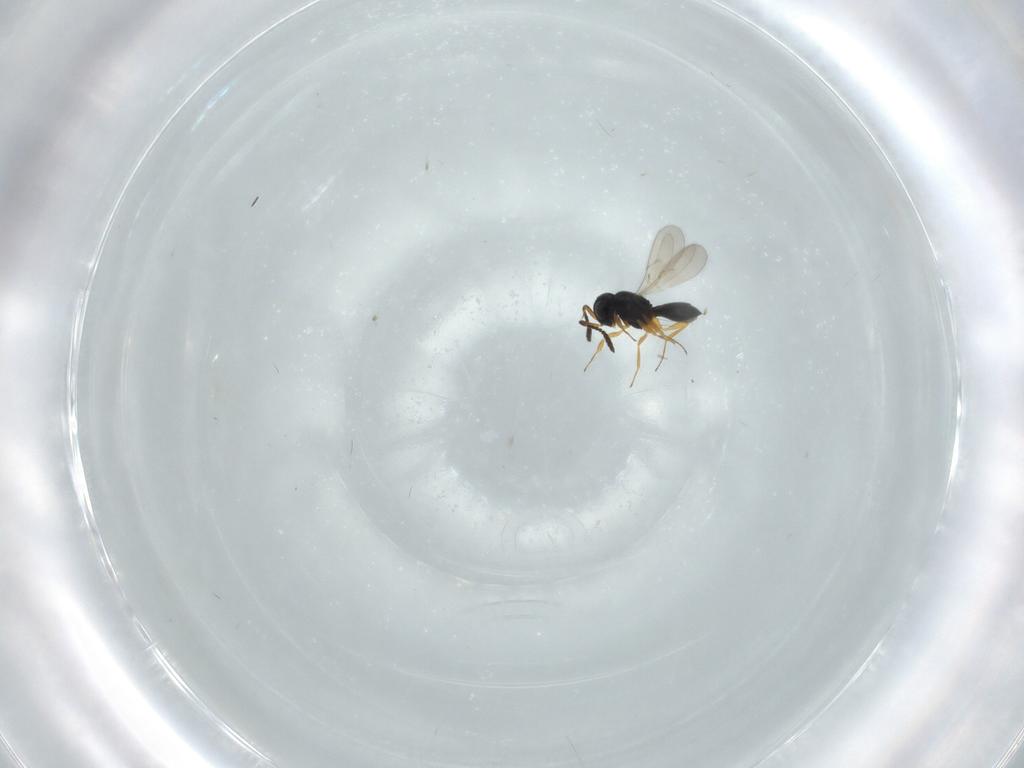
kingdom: Animalia
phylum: Arthropoda
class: Insecta
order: Hymenoptera
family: Scelionidae
